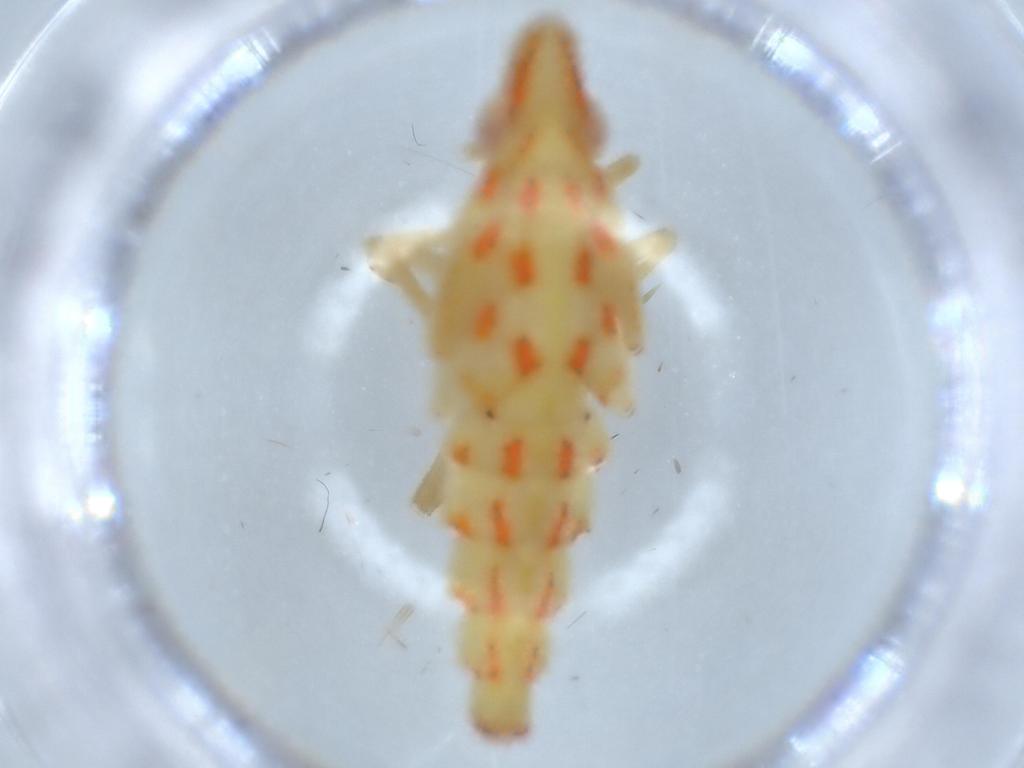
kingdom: Animalia
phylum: Arthropoda
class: Insecta
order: Hemiptera
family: Tropiduchidae
